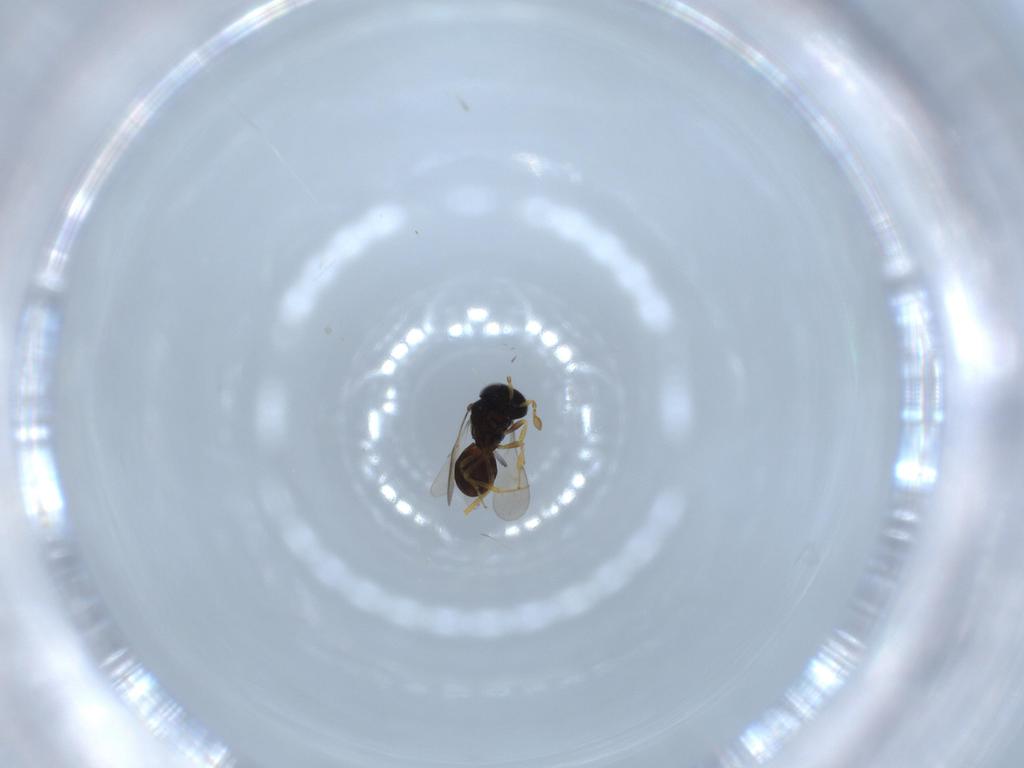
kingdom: Animalia
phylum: Arthropoda
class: Insecta
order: Hymenoptera
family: Scelionidae
